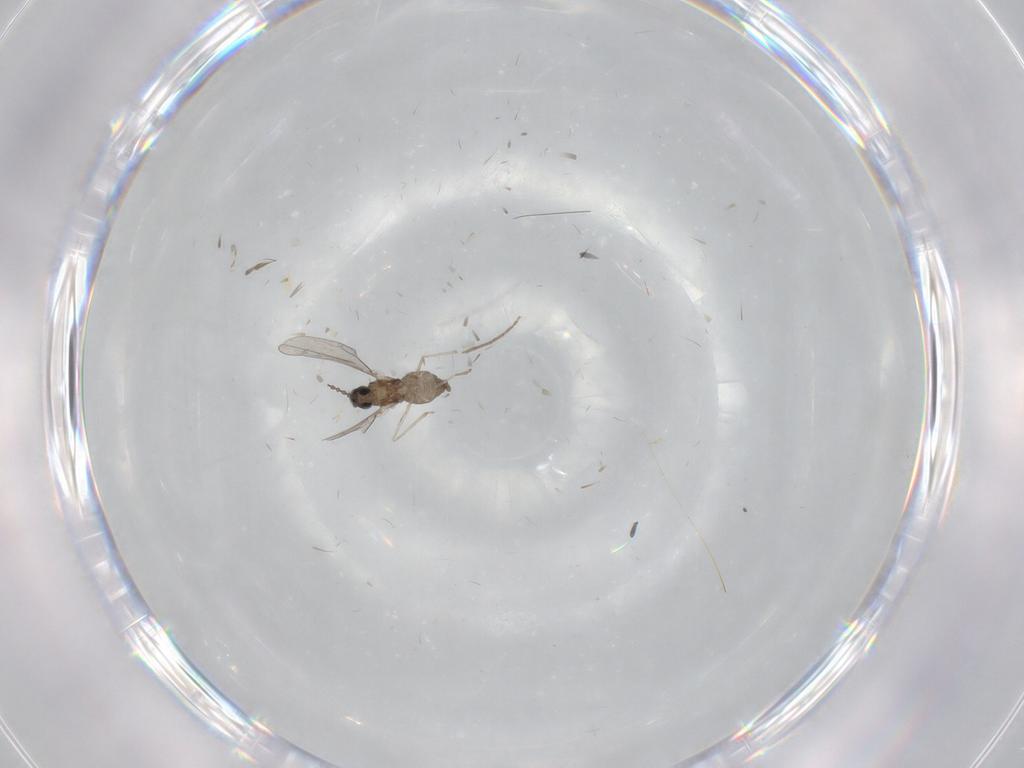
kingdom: Animalia
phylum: Arthropoda
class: Insecta
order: Diptera
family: Cecidomyiidae
